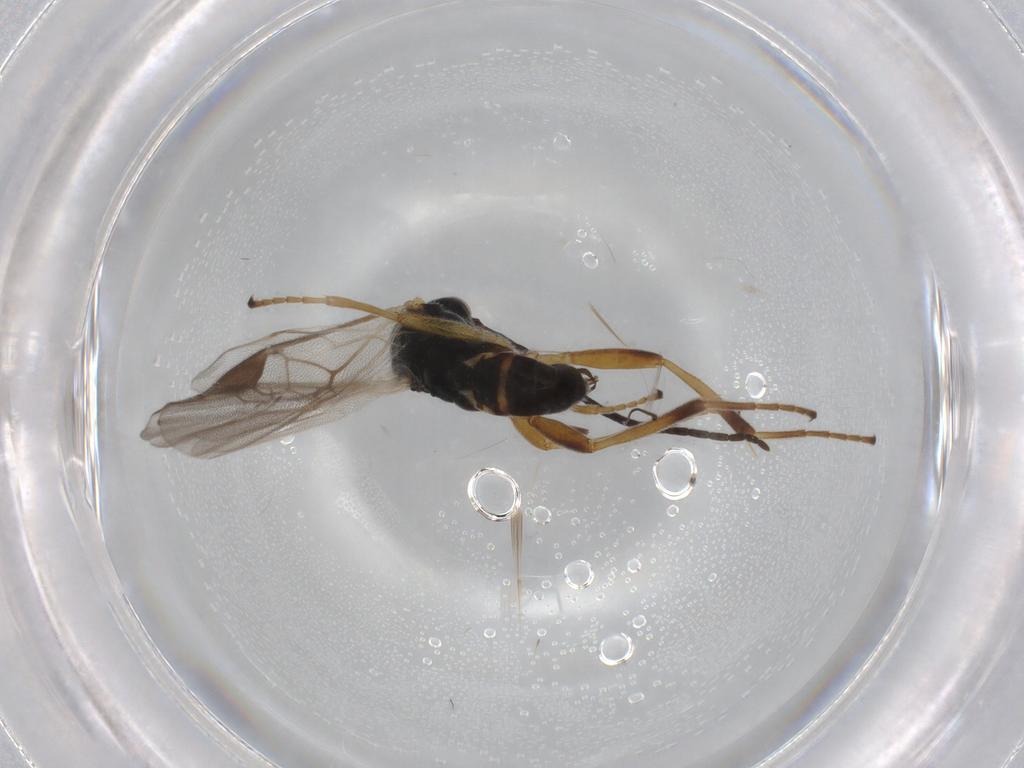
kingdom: Animalia
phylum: Arthropoda
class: Insecta
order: Hymenoptera
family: Braconidae
